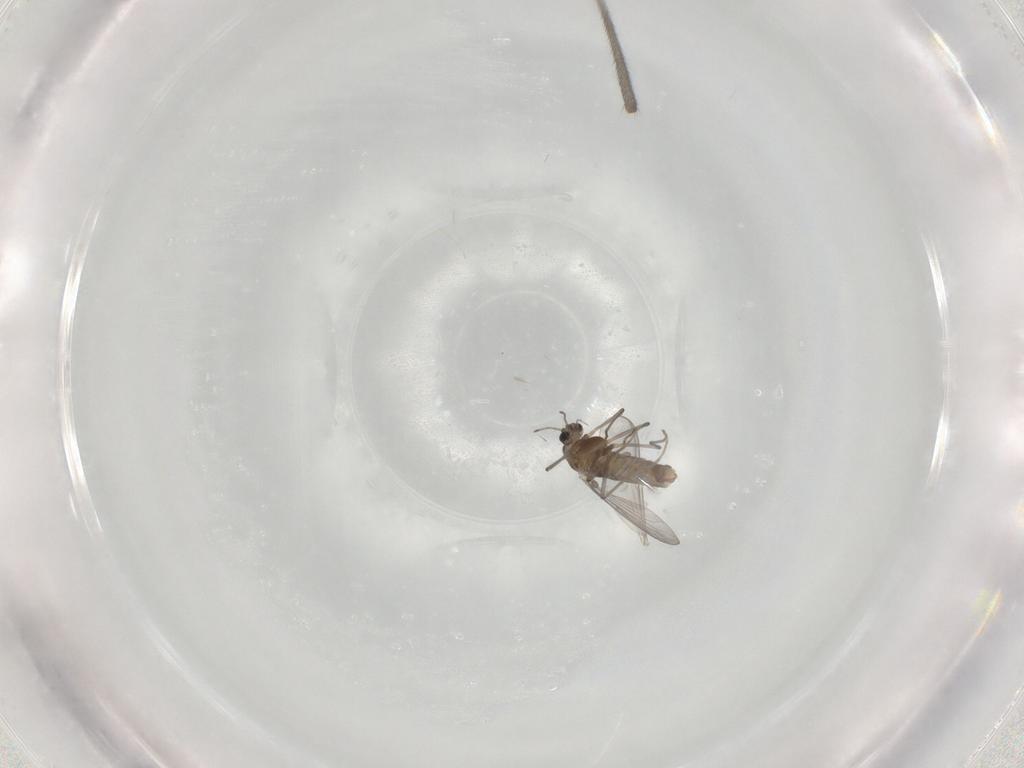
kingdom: Animalia
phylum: Arthropoda
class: Insecta
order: Diptera
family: Chironomidae
